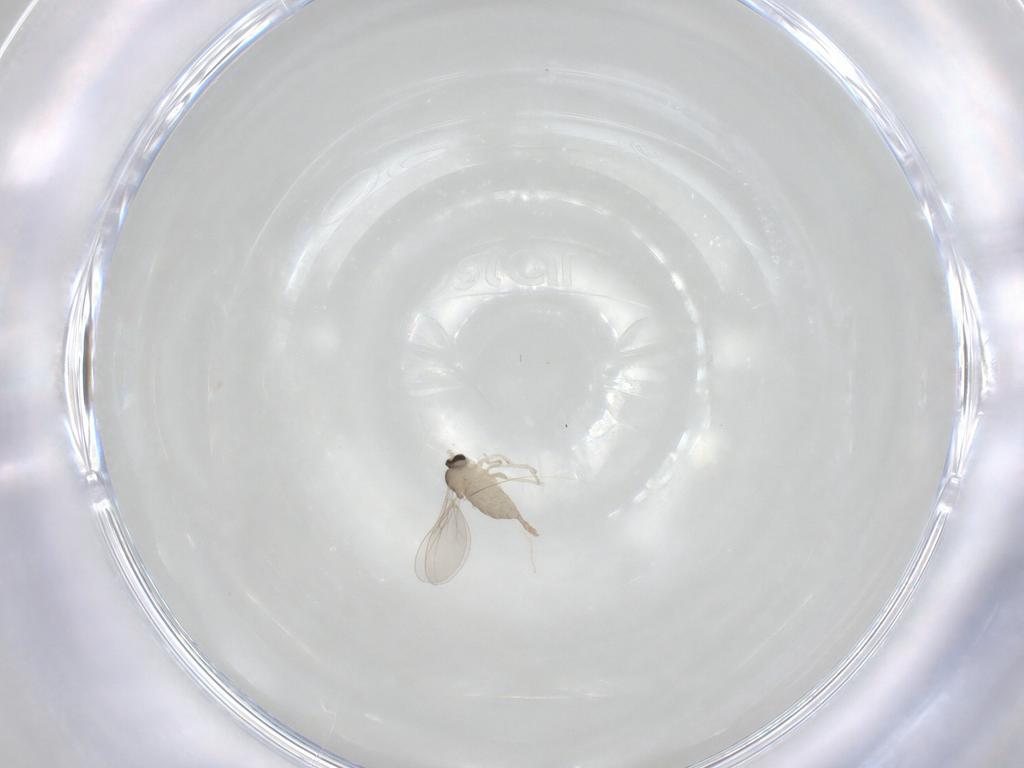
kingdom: Animalia
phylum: Arthropoda
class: Insecta
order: Diptera
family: Cecidomyiidae
